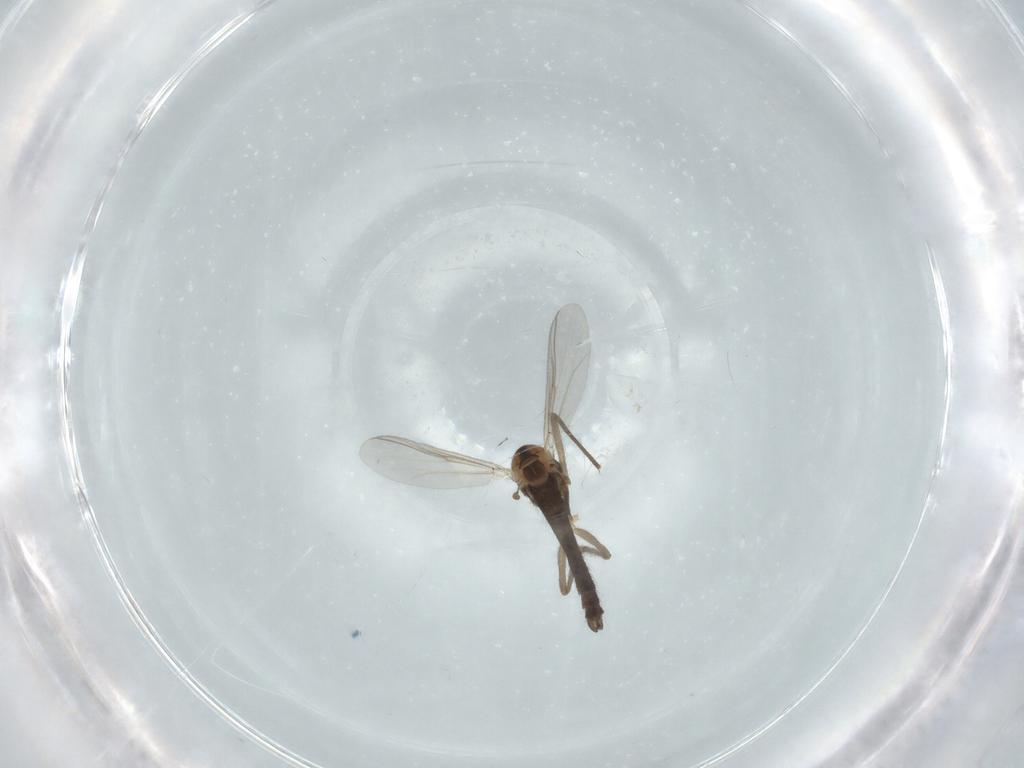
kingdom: Animalia
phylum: Arthropoda
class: Insecta
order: Diptera
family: Chironomidae
